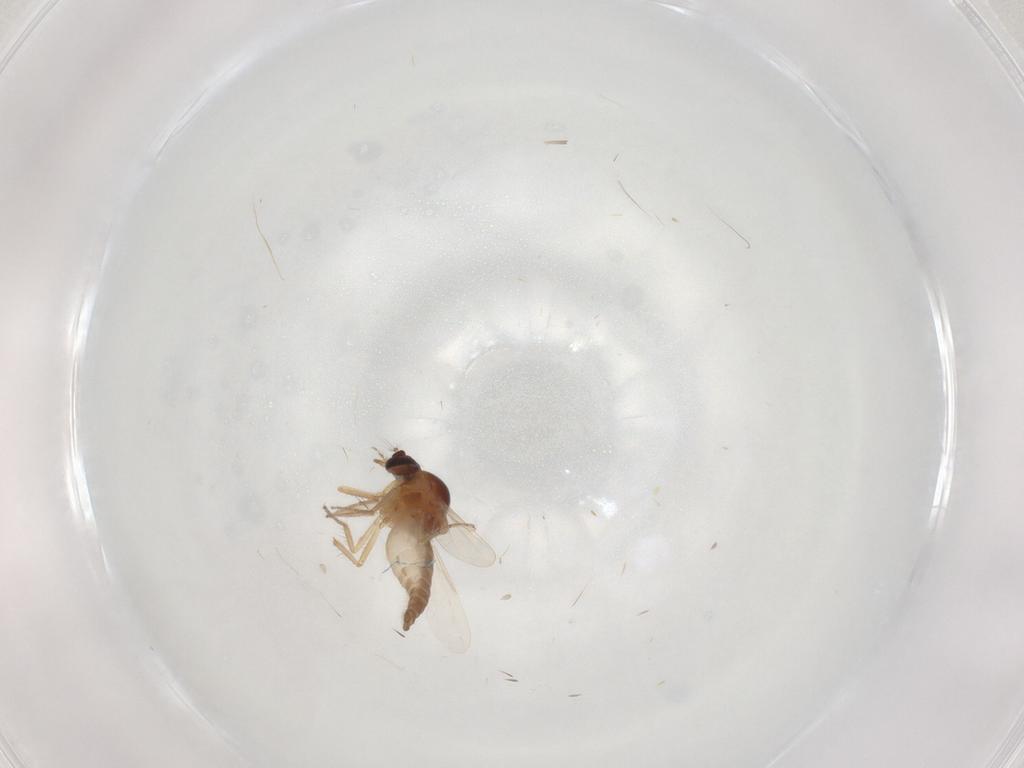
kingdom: Animalia
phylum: Arthropoda
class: Insecta
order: Diptera
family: Ceratopogonidae
